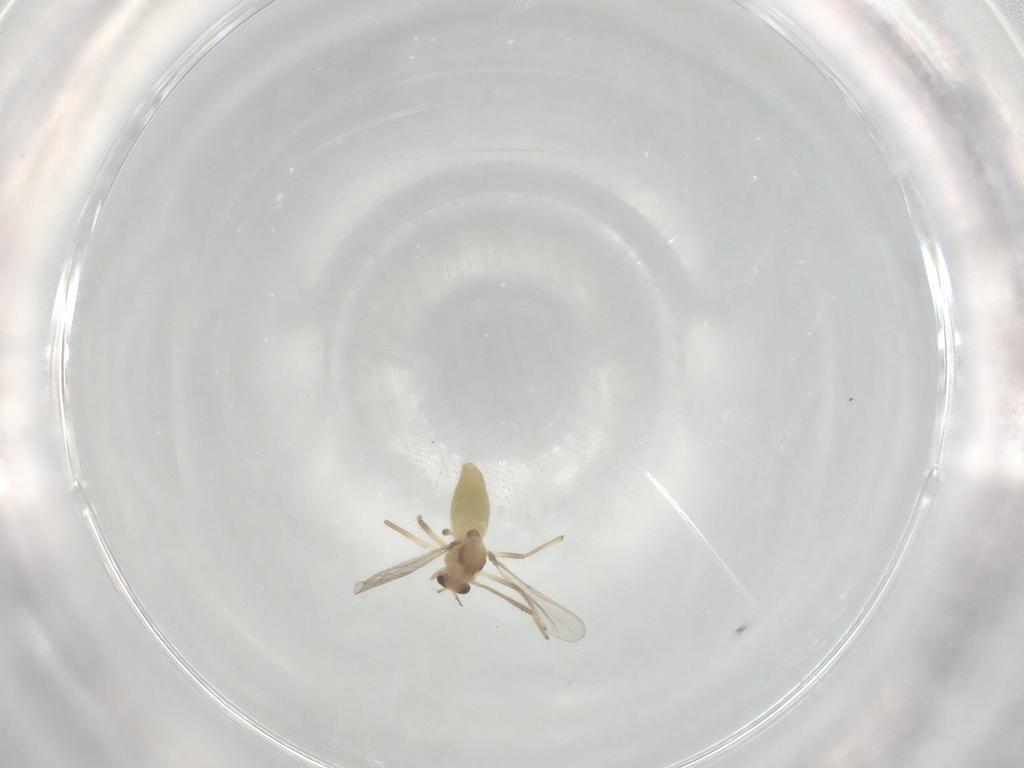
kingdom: Animalia
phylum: Arthropoda
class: Insecta
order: Diptera
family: Chironomidae
